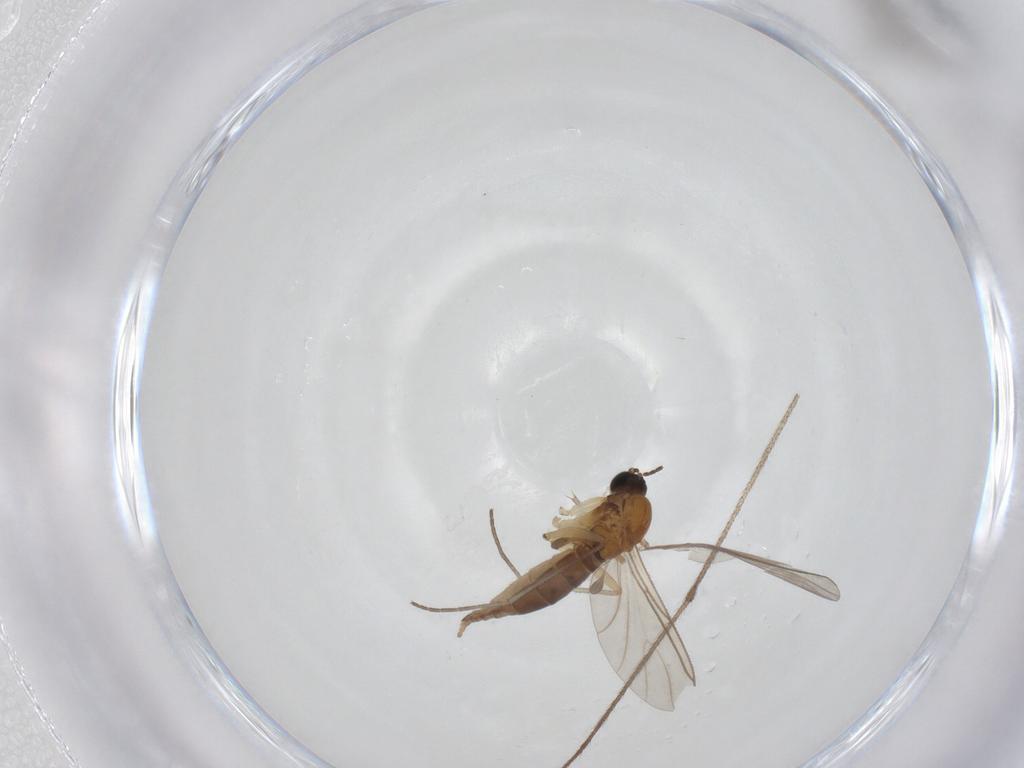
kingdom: Animalia
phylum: Arthropoda
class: Insecta
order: Diptera
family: Limoniidae
